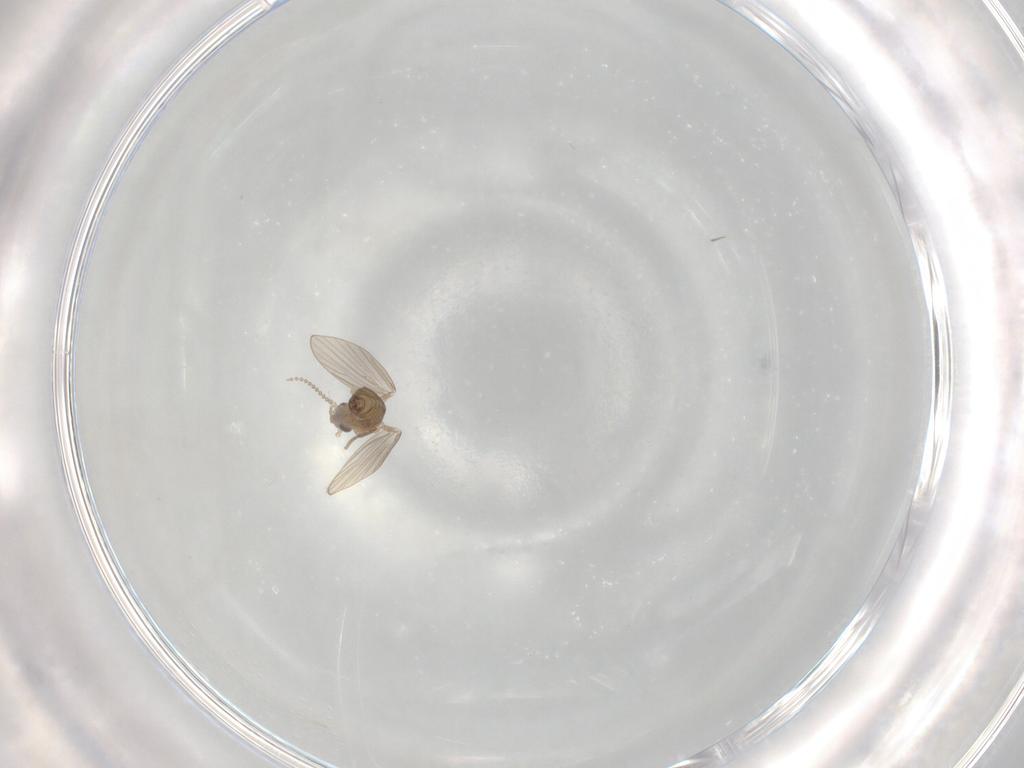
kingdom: Animalia
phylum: Arthropoda
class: Insecta
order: Diptera
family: Psychodidae
